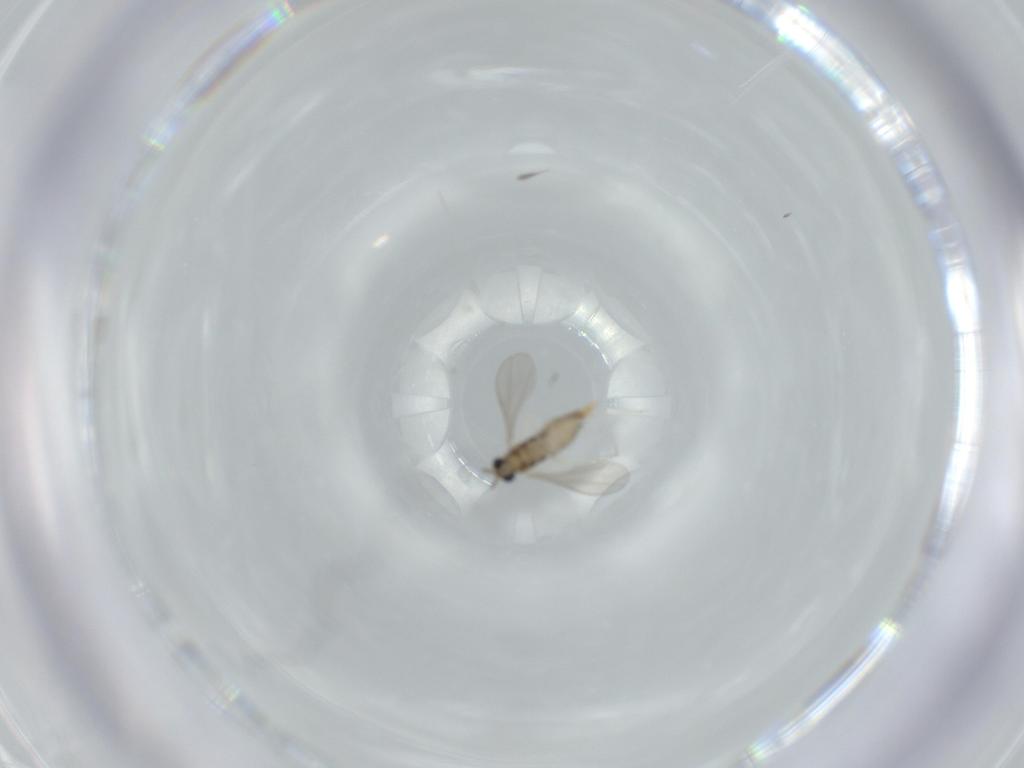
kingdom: Animalia
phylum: Arthropoda
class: Insecta
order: Diptera
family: Cecidomyiidae
